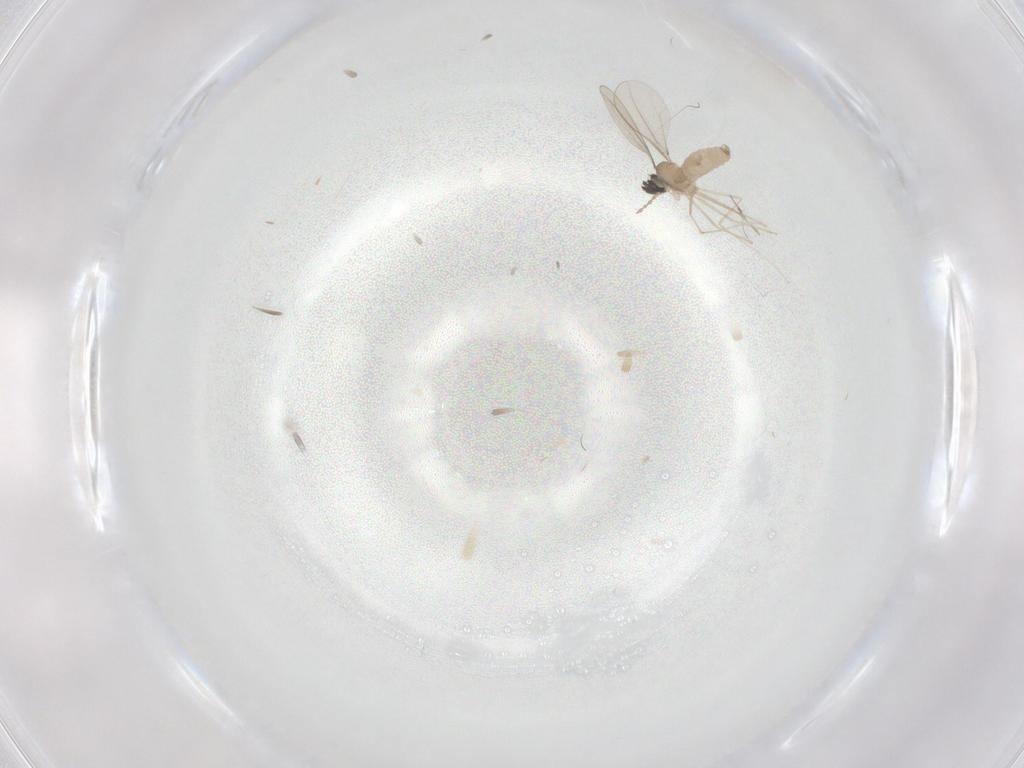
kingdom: Animalia
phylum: Arthropoda
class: Insecta
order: Diptera
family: Cecidomyiidae
